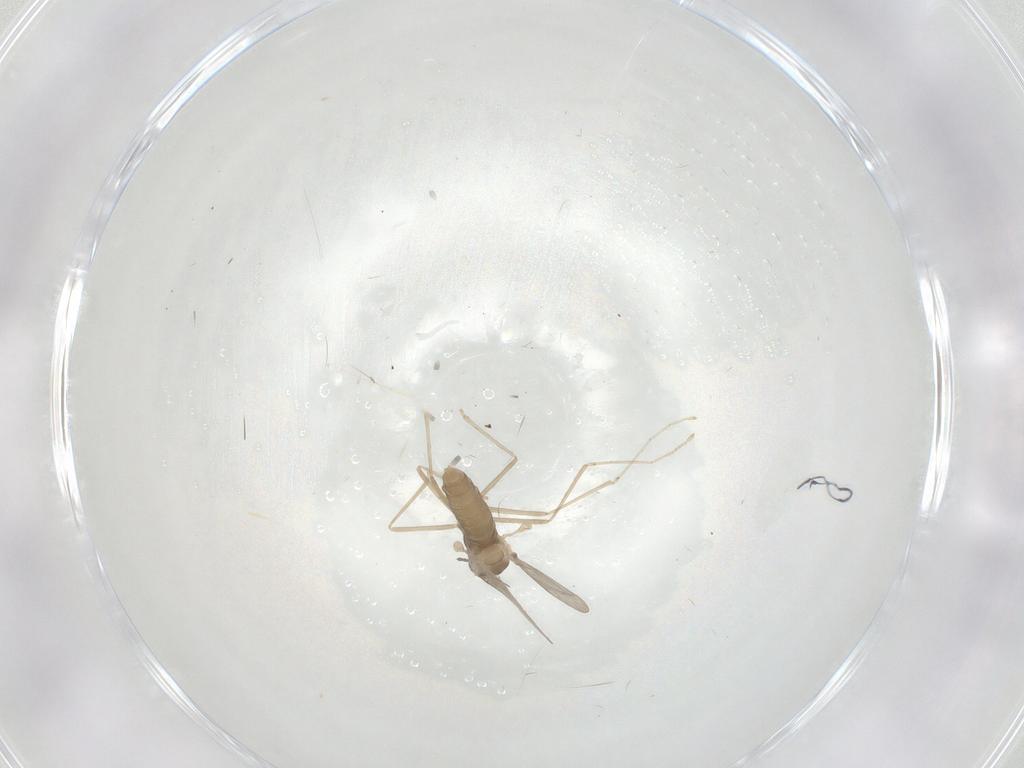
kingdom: Animalia
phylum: Arthropoda
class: Insecta
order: Diptera
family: Cecidomyiidae
